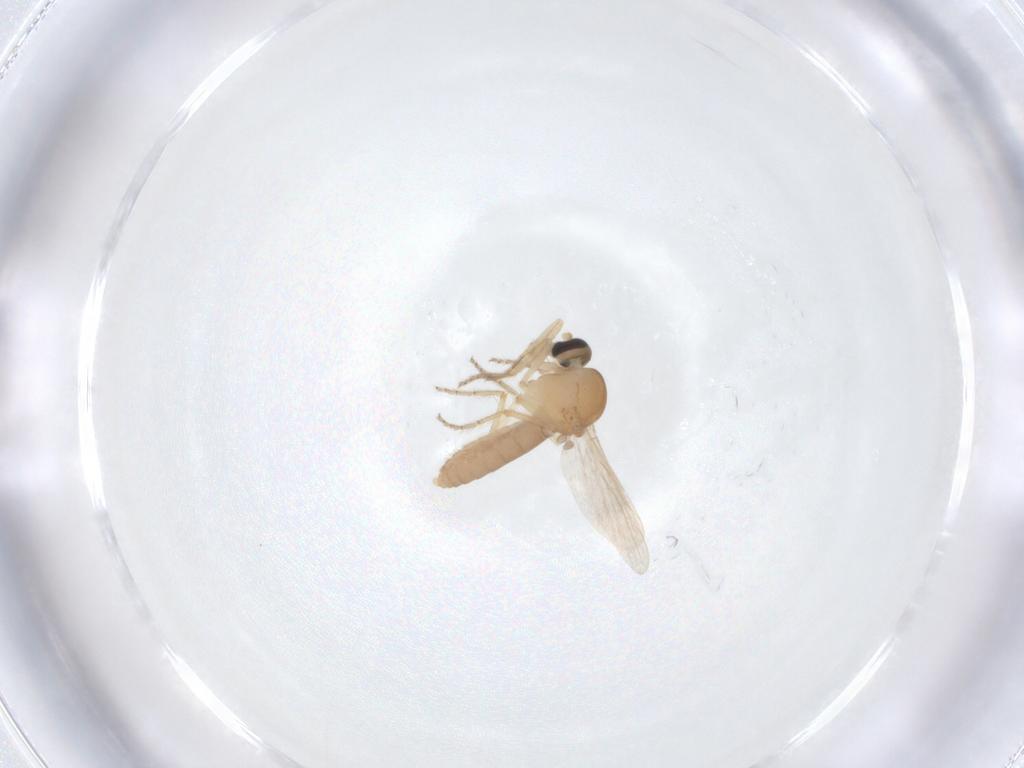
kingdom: Animalia
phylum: Arthropoda
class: Insecta
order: Diptera
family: Ceratopogonidae
